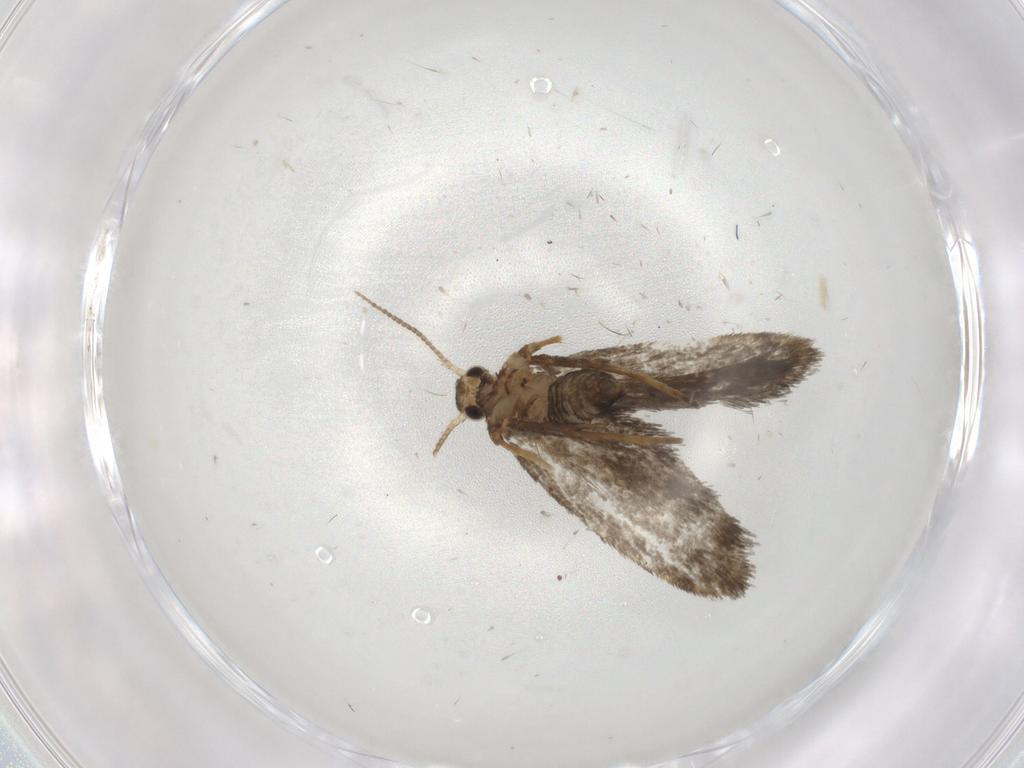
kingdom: Animalia
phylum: Arthropoda
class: Insecta
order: Lepidoptera
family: Psychidae
